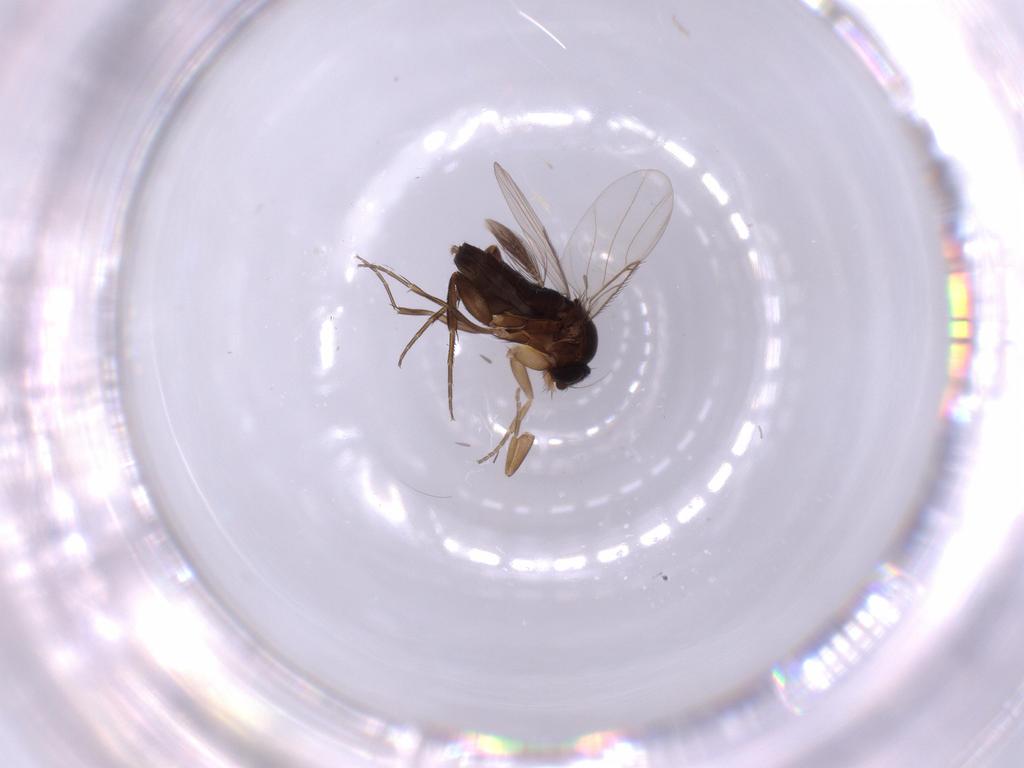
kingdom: Animalia
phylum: Arthropoda
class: Insecta
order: Diptera
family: Phoridae
